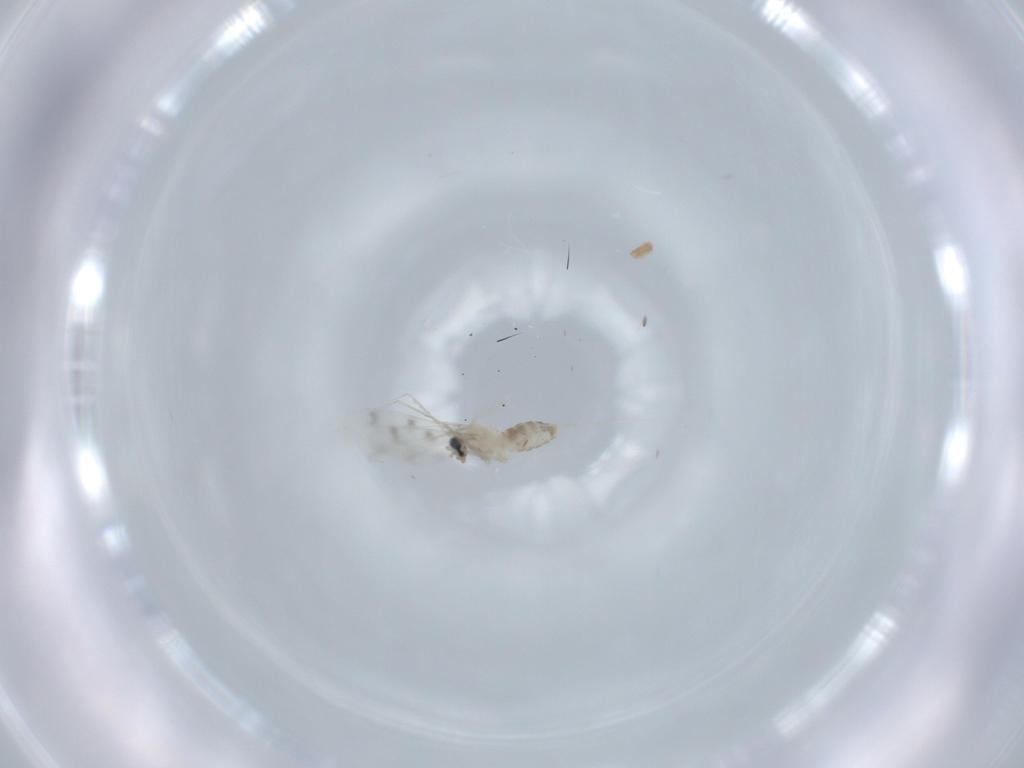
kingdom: Animalia
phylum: Arthropoda
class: Insecta
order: Diptera
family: Cecidomyiidae
